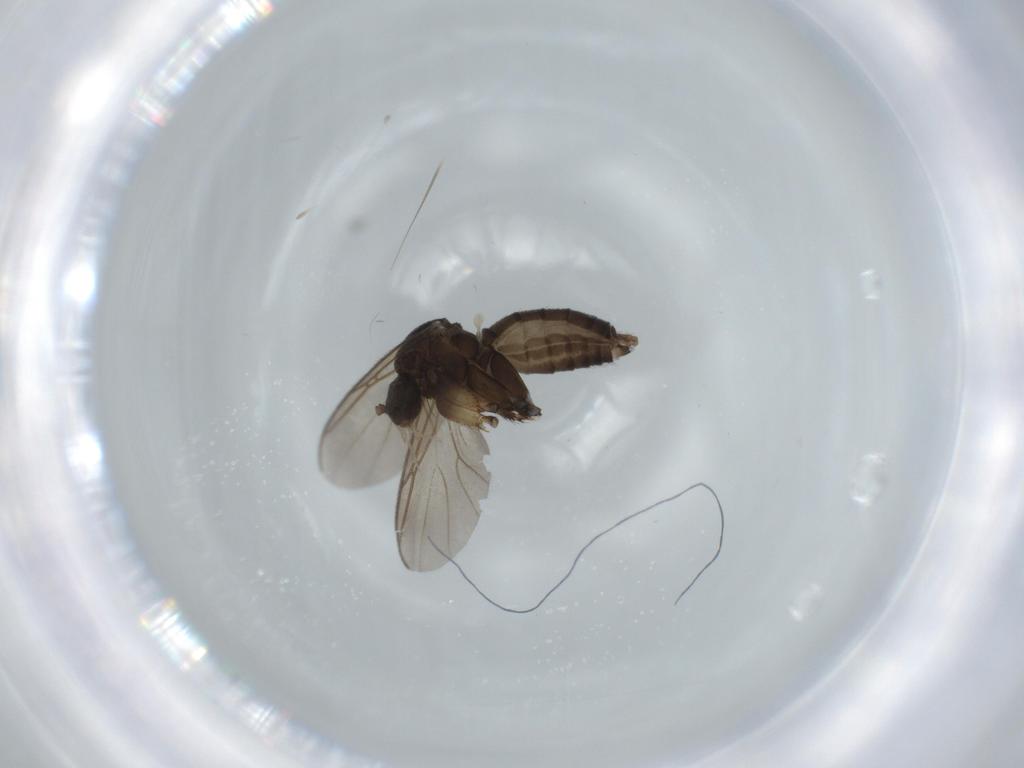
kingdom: Animalia
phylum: Arthropoda
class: Insecta
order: Diptera
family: Mycetophilidae
